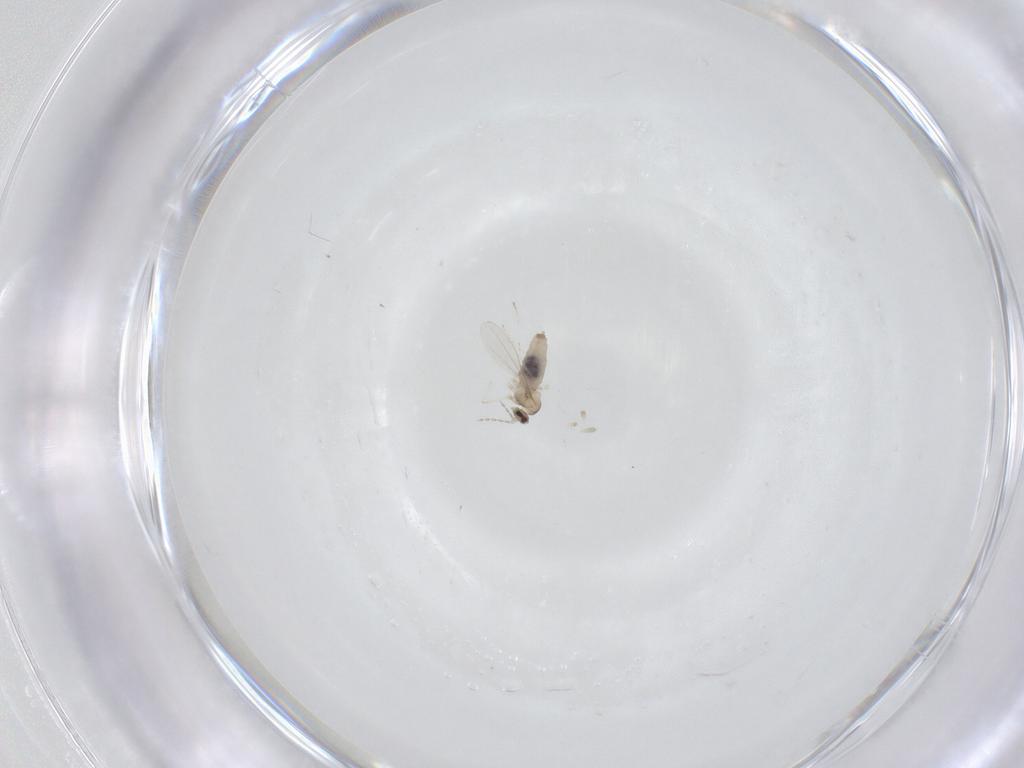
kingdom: Animalia
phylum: Arthropoda
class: Insecta
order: Diptera
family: Cecidomyiidae
